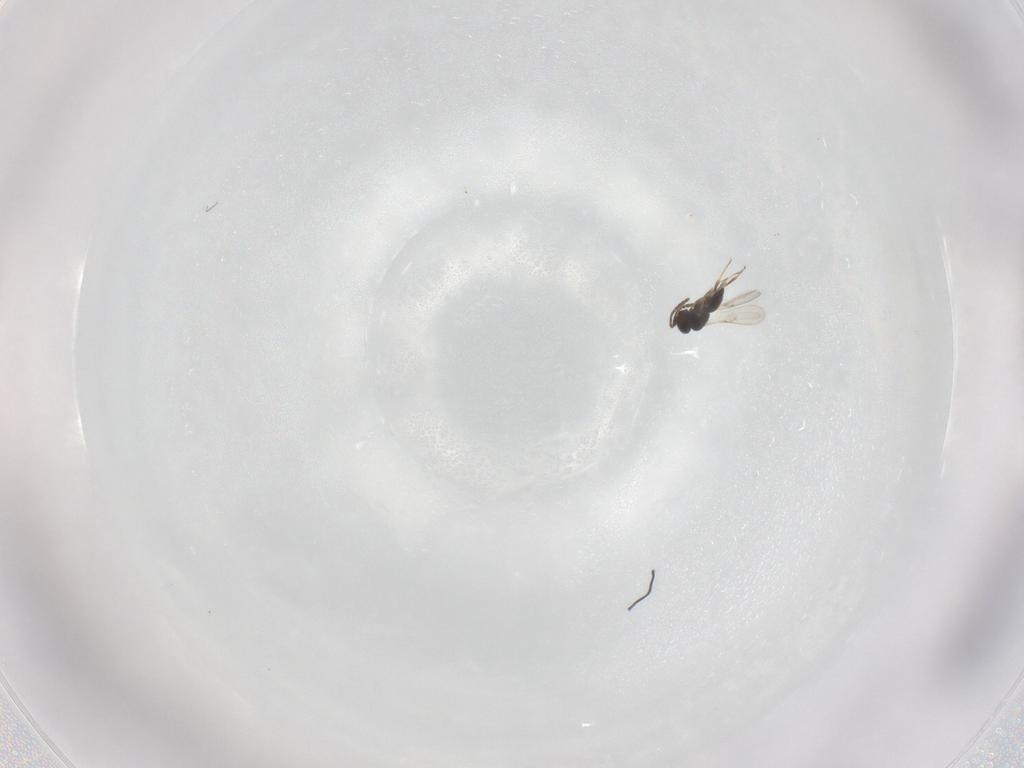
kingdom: Animalia
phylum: Arthropoda
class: Insecta
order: Hymenoptera
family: Scelionidae
